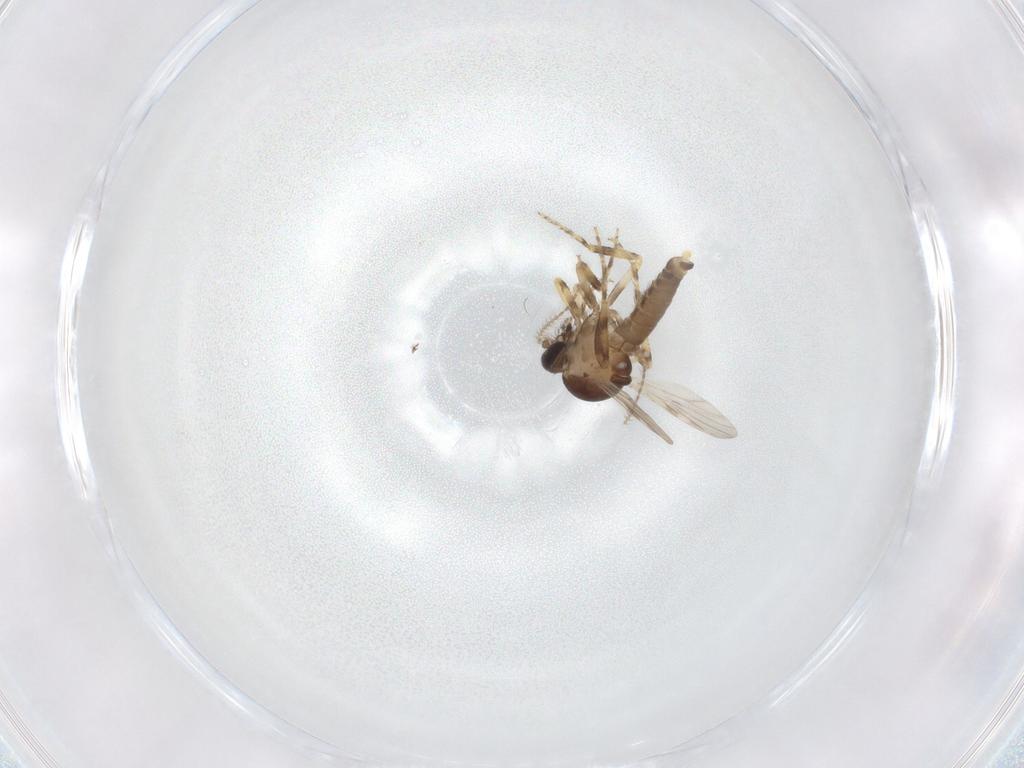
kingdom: Animalia
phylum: Arthropoda
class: Insecta
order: Diptera
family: Ceratopogonidae
